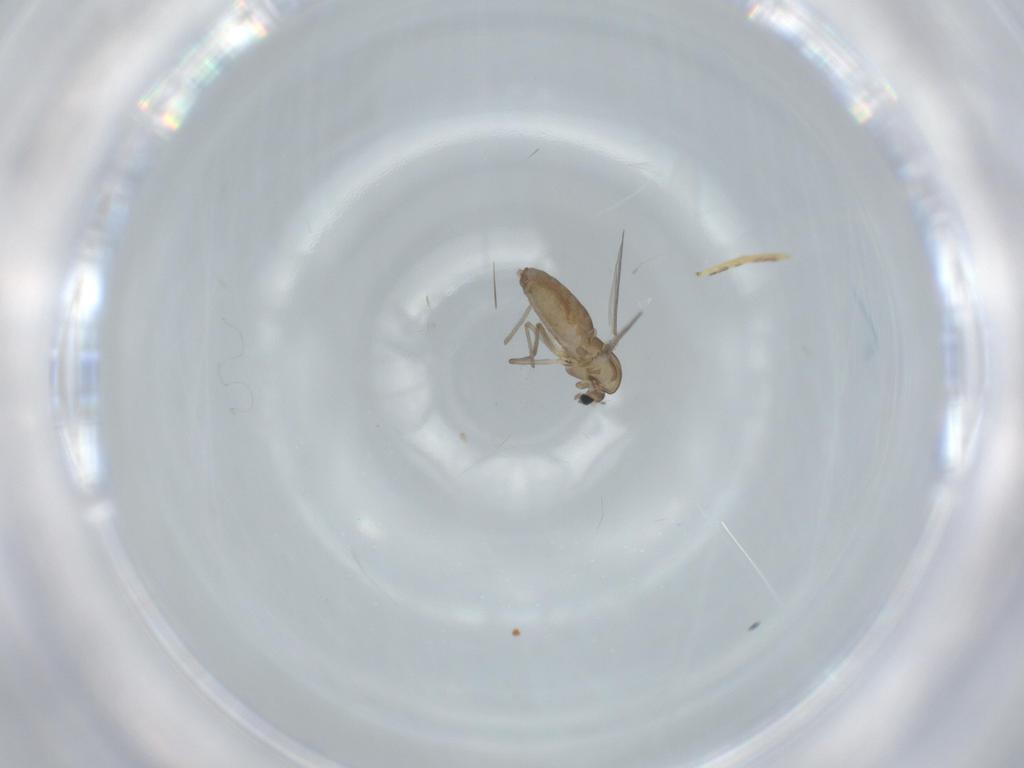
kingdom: Animalia
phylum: Arthropoda
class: Insecta
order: Diptera
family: Chironomidae
